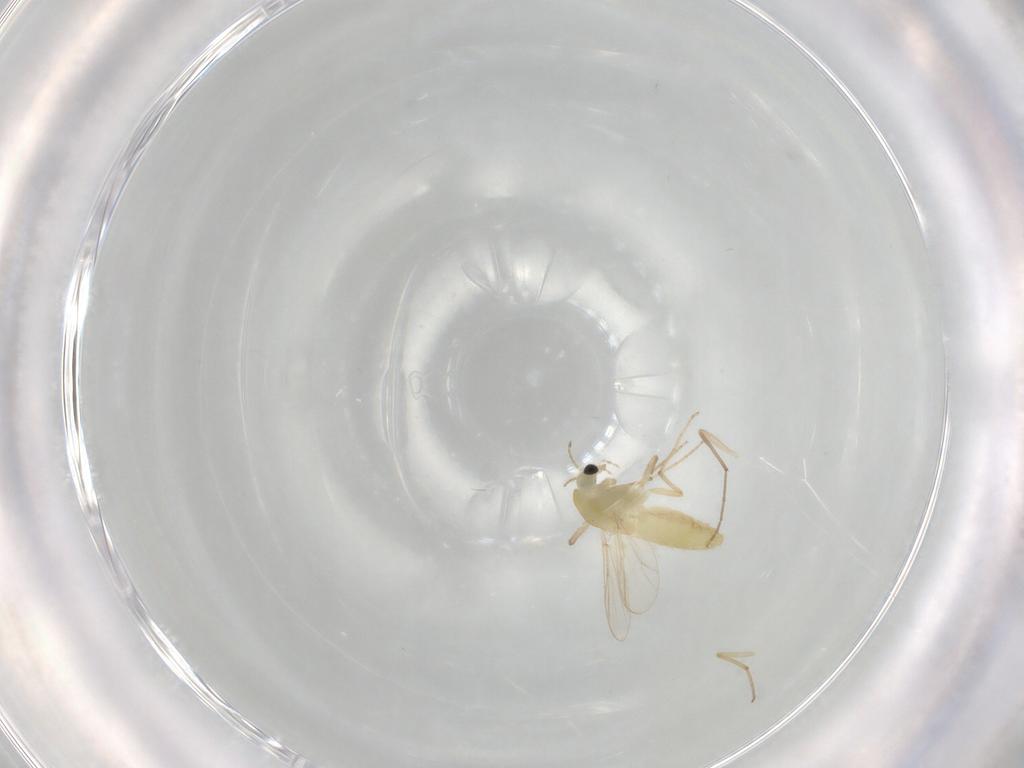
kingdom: Animalia
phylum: Arthropoda
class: Insecta
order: Diptera
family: Chironomidae
